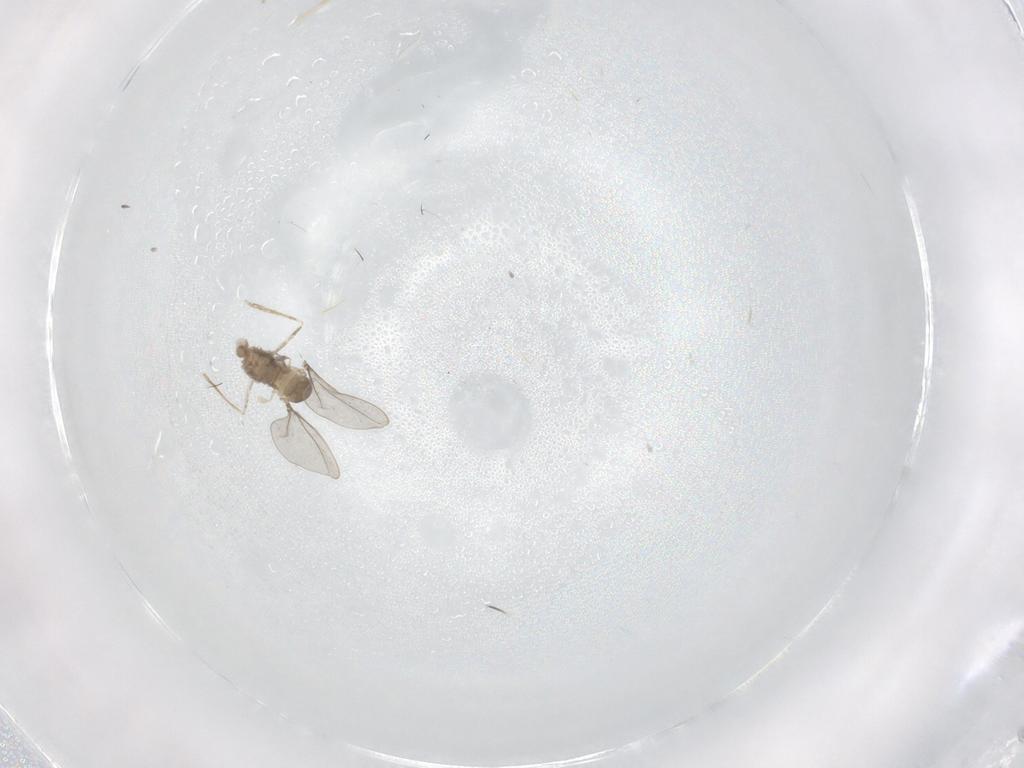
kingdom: Animalia
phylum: Arthropoda
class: Insecta
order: Diptera
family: Cecidomyiidae
